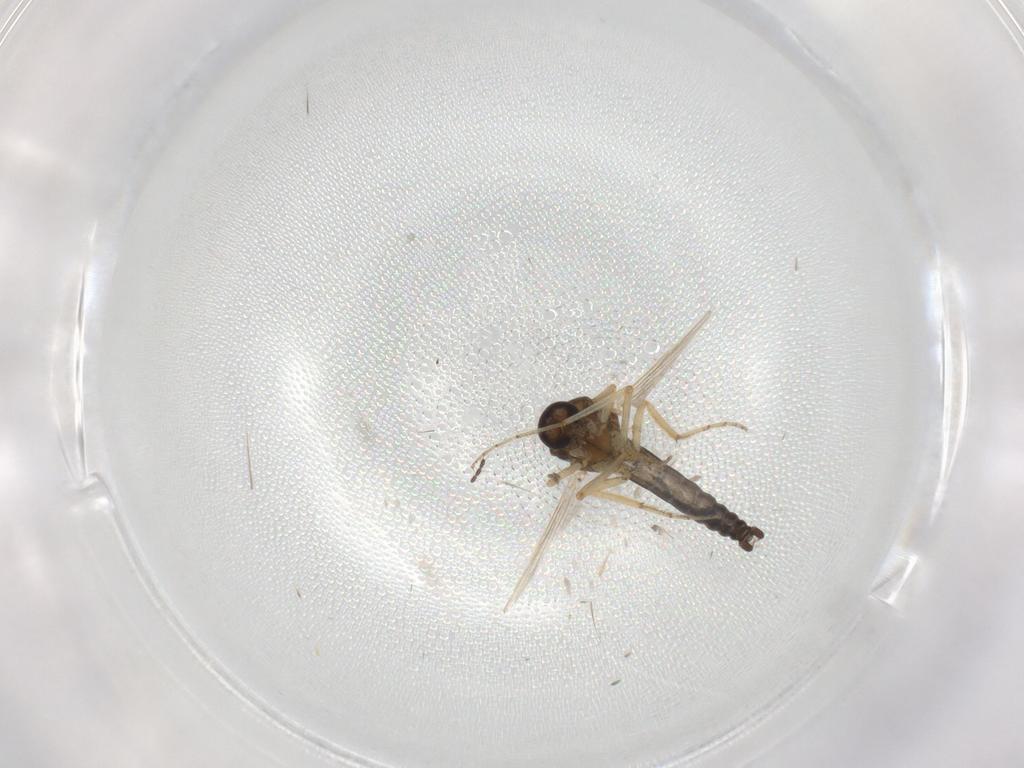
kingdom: Animalia
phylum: Arthropoda
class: Insecta
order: Diptera
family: Ceratopogonidae
